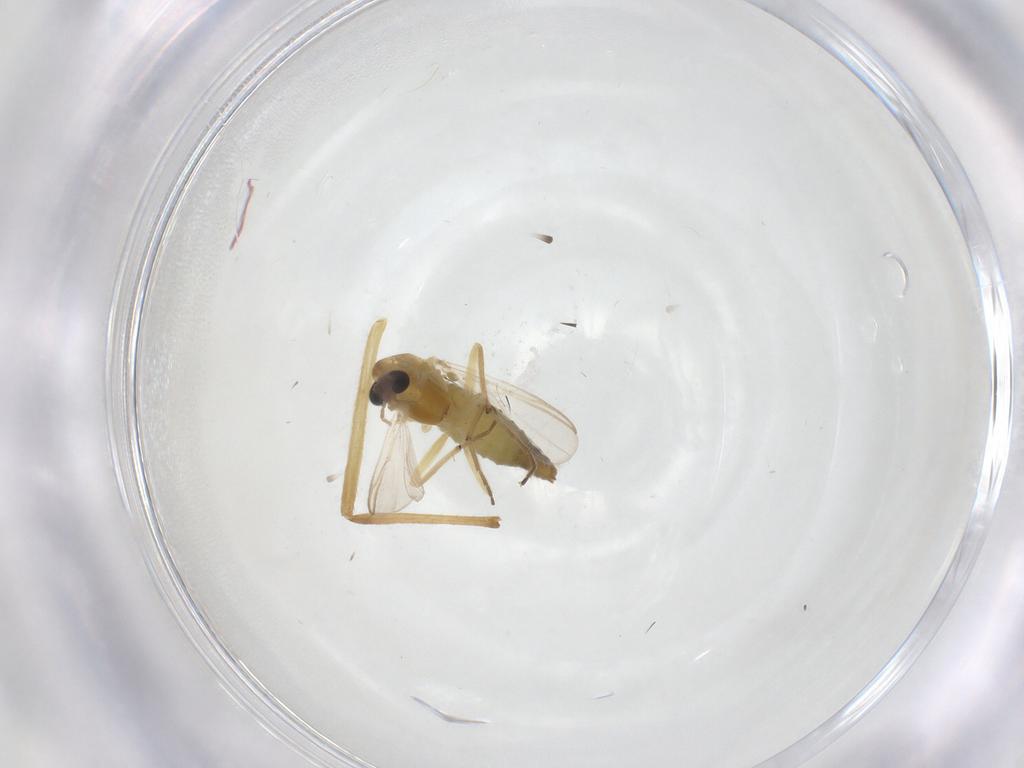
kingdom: Animalia
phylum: Arthropoda
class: Insecta
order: Diptera
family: Chironomidae
